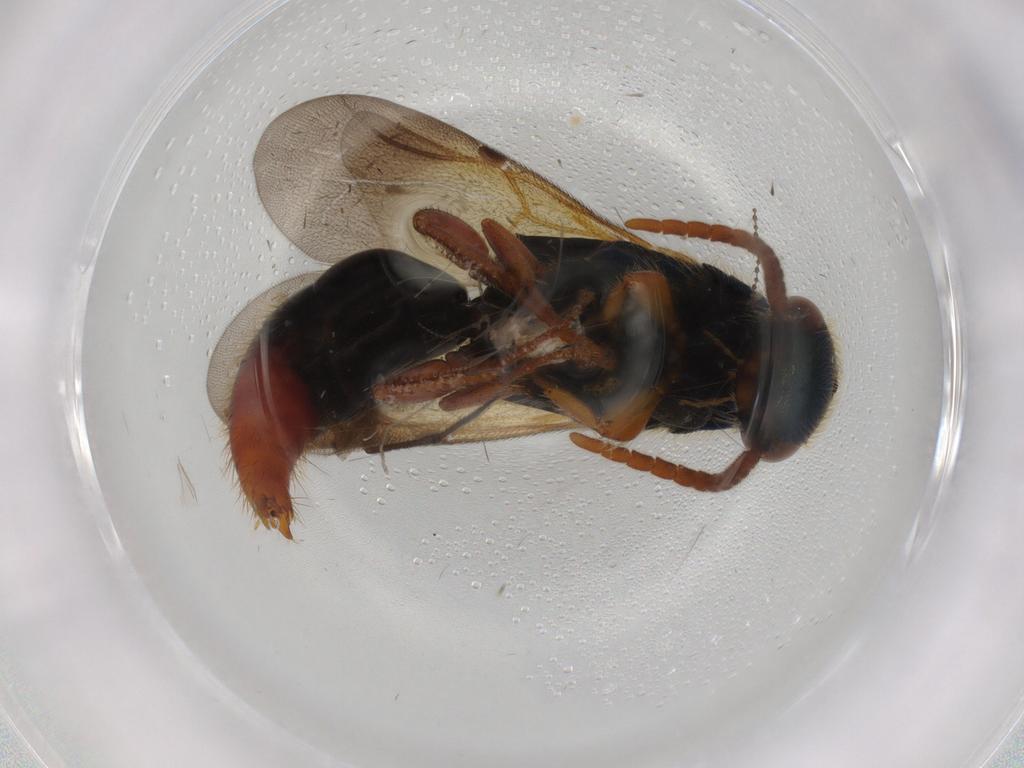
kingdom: Animalia
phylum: Arthropoda
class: Insecta
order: Hymenoptera
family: Bethylidae
